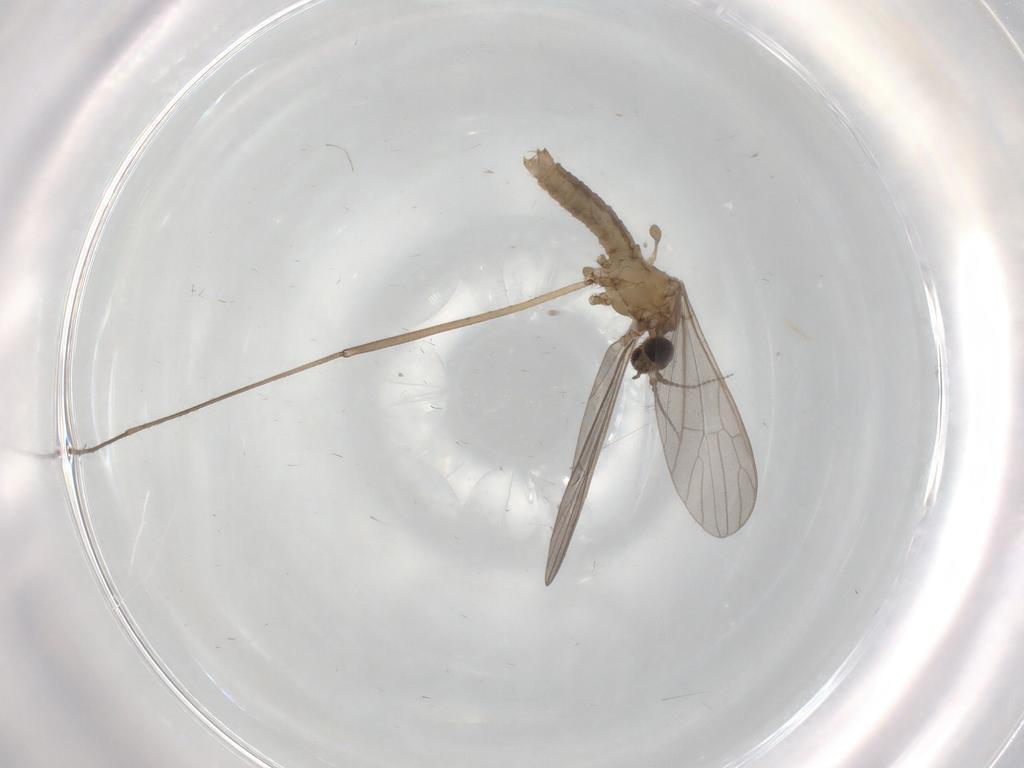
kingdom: Animalia
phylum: Arthropoda
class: Insecta
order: Diptera
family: Limoniidae
